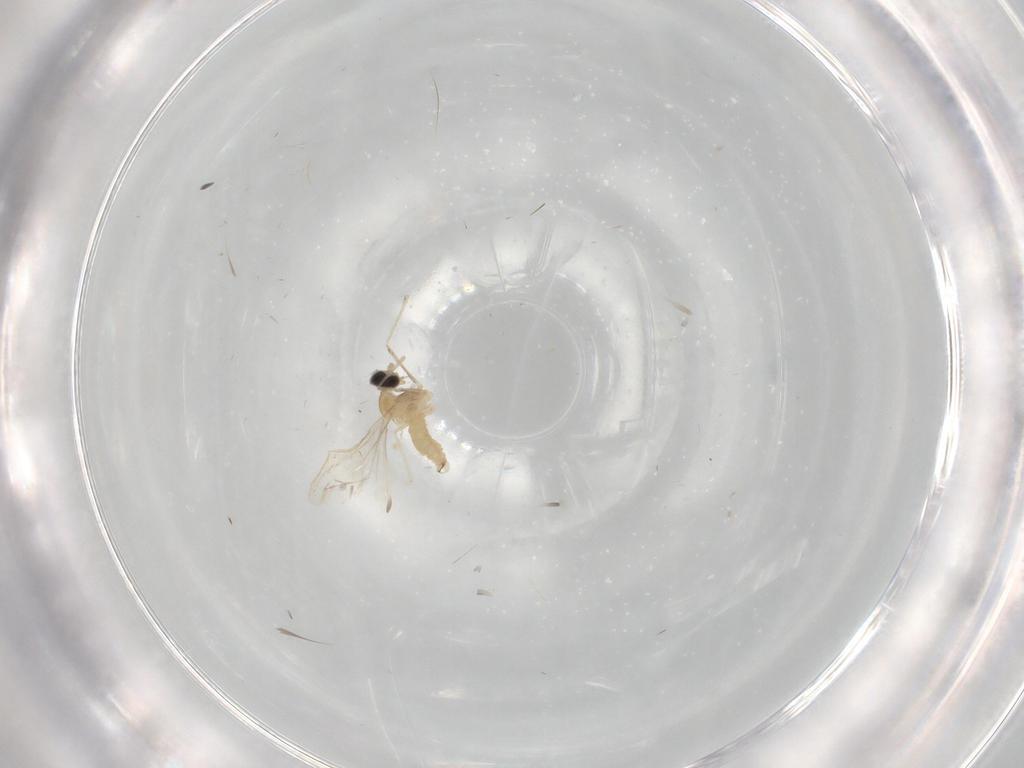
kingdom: Animalia
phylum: Arthropoda
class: Insecta
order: Diptera
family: Cecidomyiidae
